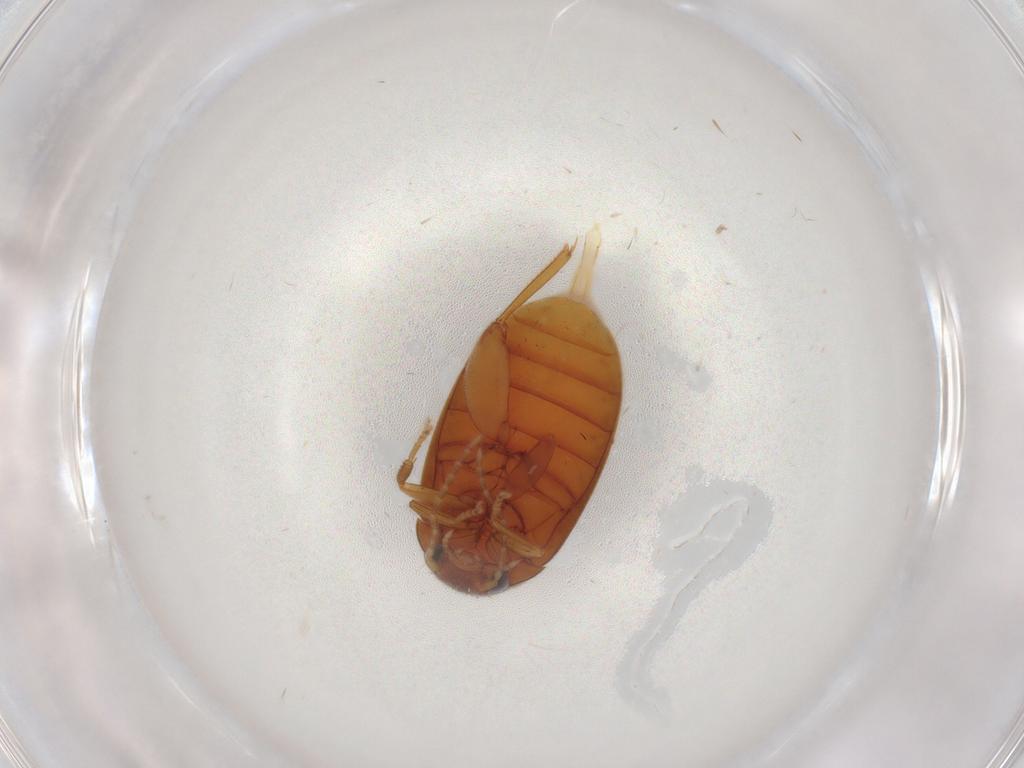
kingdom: Animalia
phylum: Arthropoda
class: Insecta
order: Coleoptera
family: Scirtidae
